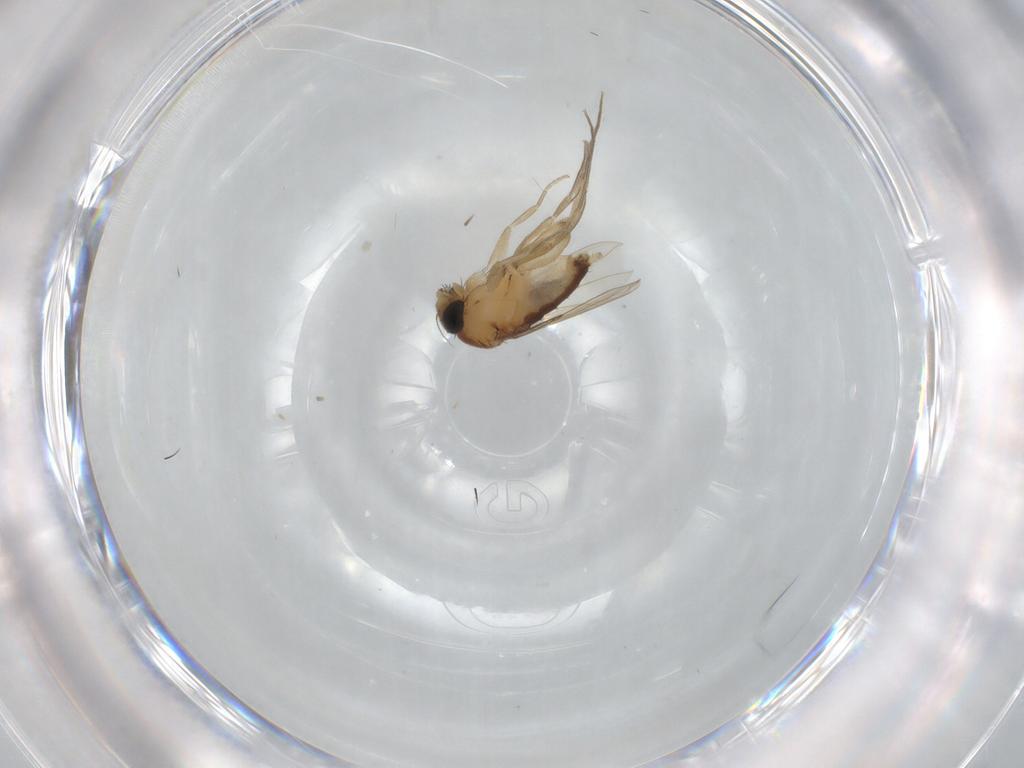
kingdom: Animalia
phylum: Arthropoda
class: Insecta
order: Diptera
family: Phoridae
